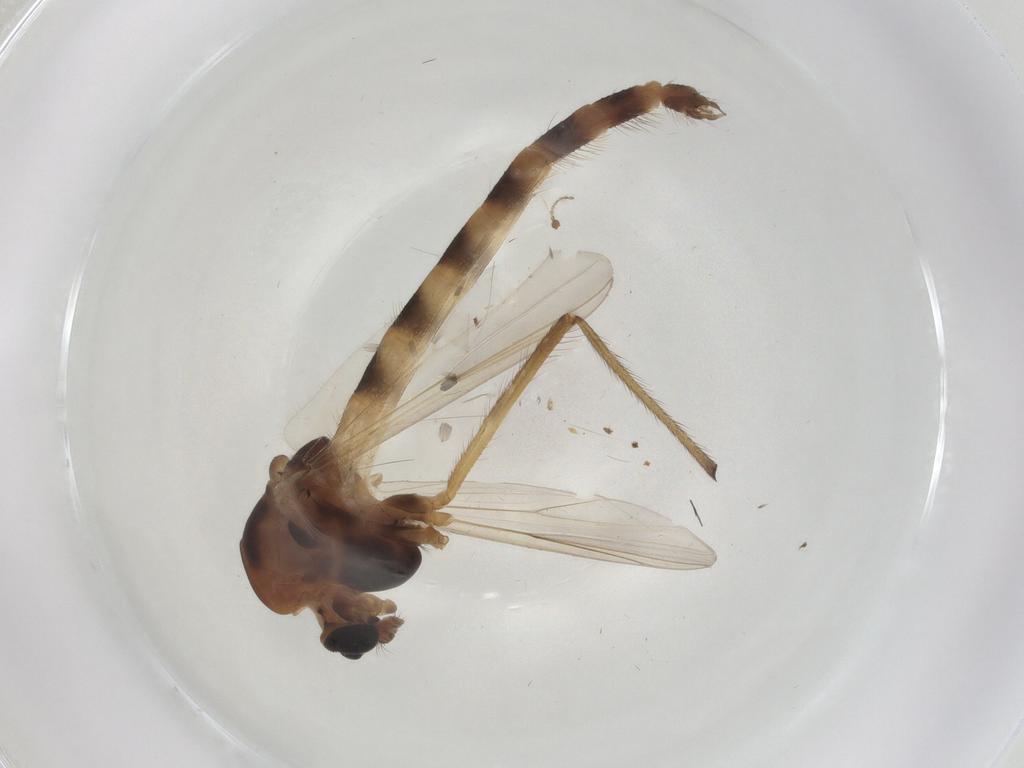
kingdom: Animalia
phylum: Arthropoda
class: Insecta
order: Diptera
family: Chironomidae
